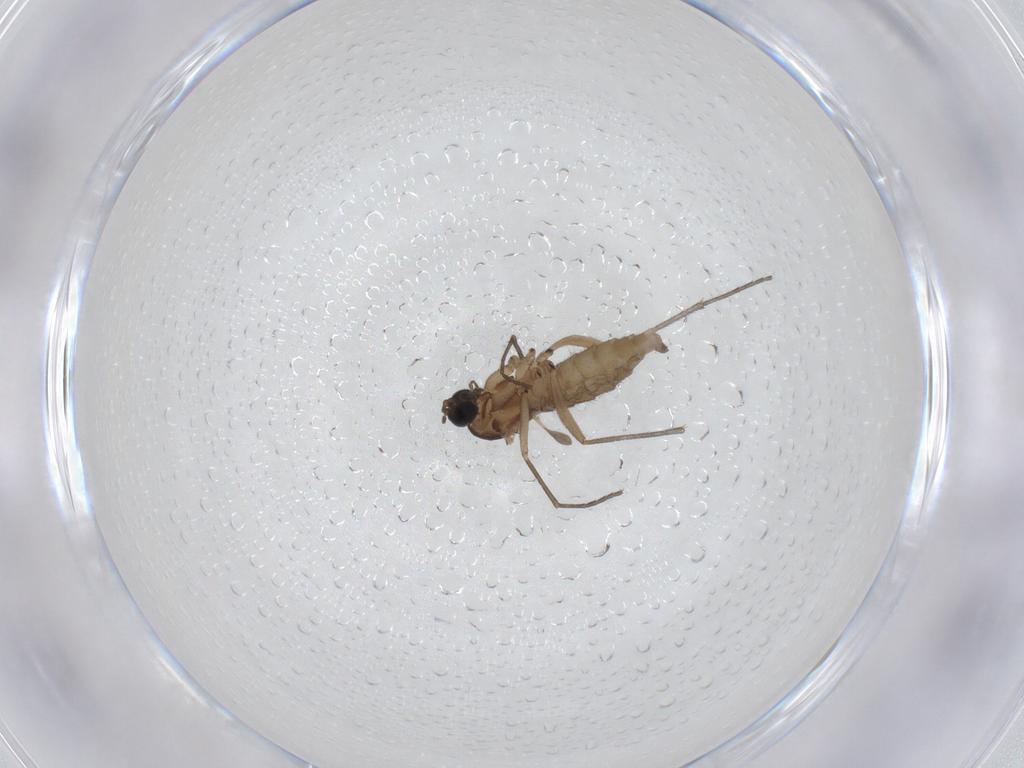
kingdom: Animalia
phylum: Arthropoda
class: Insecta
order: Diptera
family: Sciaridae
